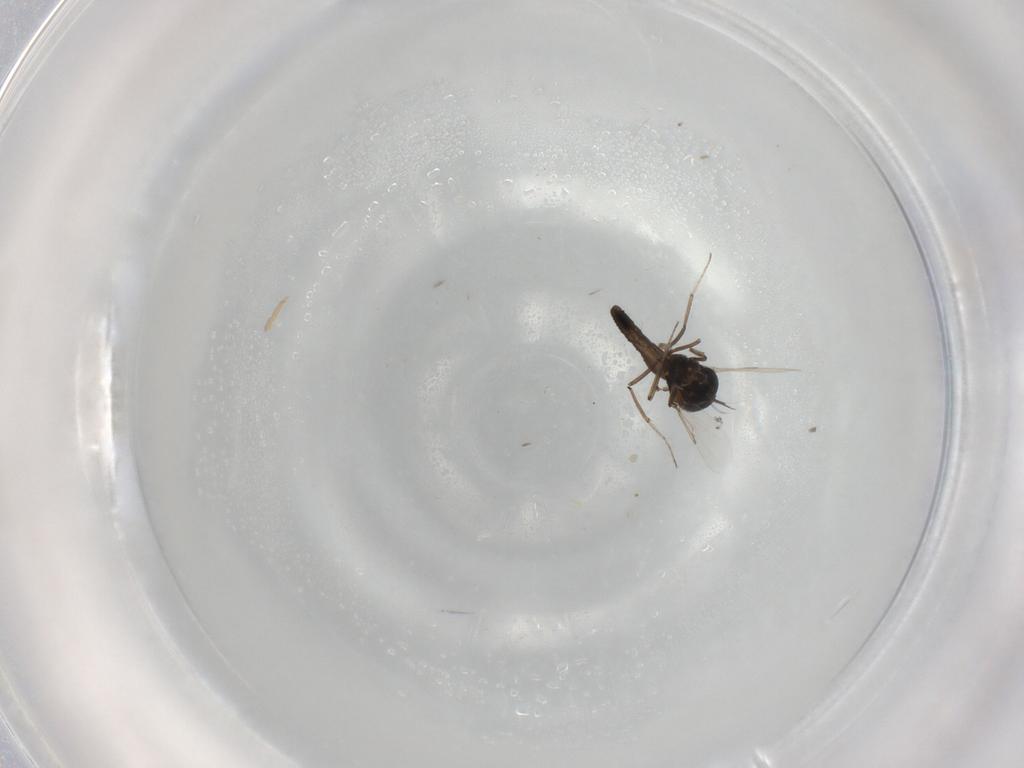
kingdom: Animalia
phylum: Arthropoda
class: Insecta
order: Diptera
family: Ceratopogonidae
